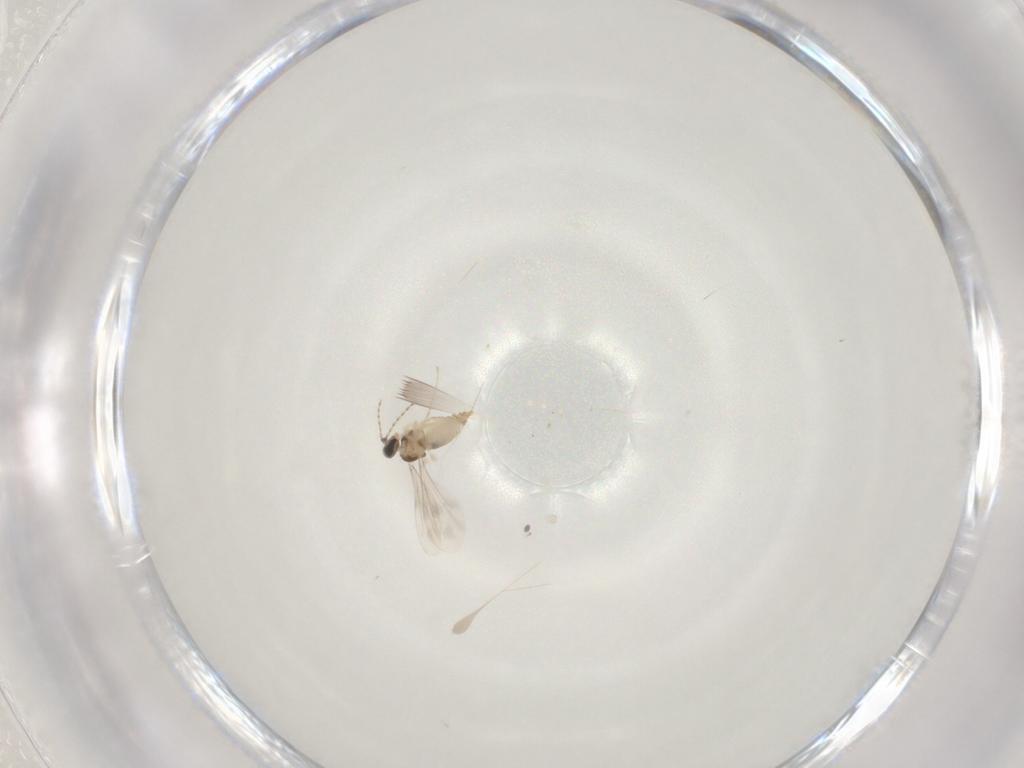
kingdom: Animalia
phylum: Arthropoda
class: Insecta
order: Diptera
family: Cecidomyiidae
